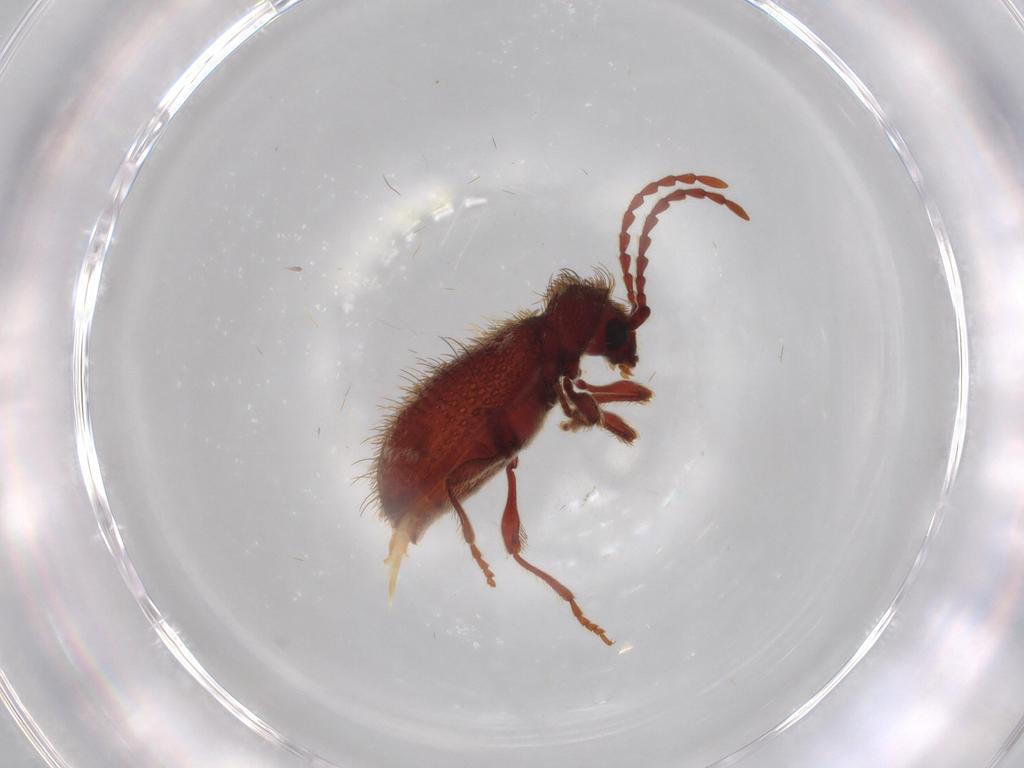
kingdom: Animalia
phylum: Arthropoda
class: Insecta
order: Coleoptera
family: Ptinidae
